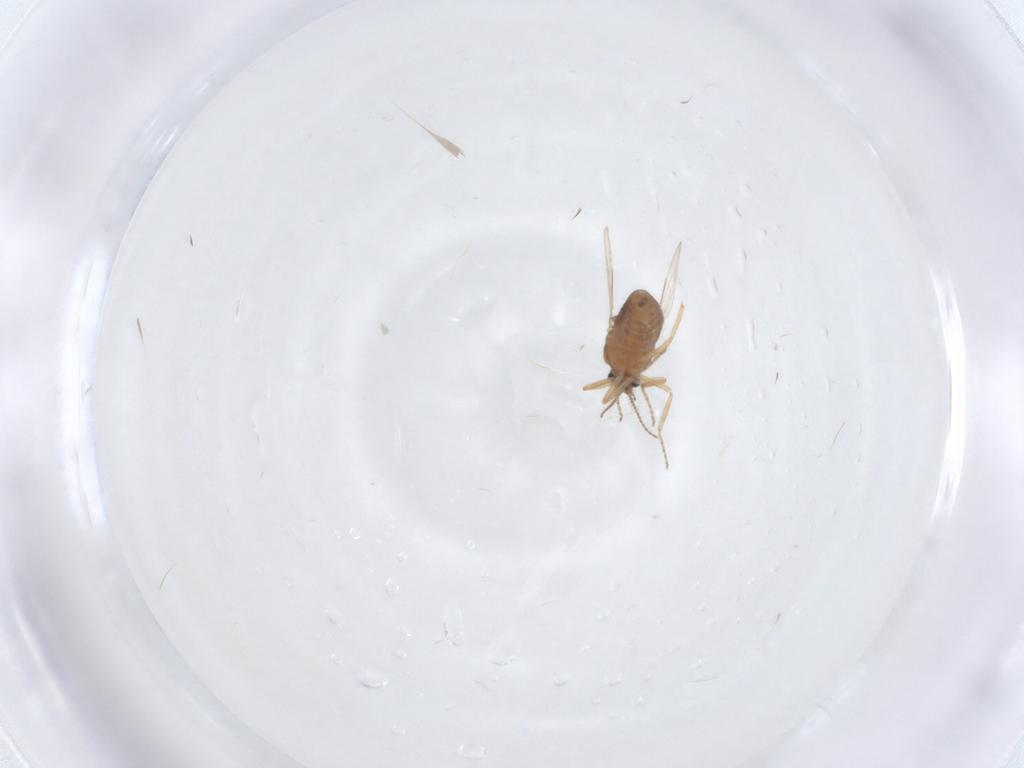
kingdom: Animalia
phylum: Arthropoda
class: Insecta
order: Diptera
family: Ceratopogonidae
